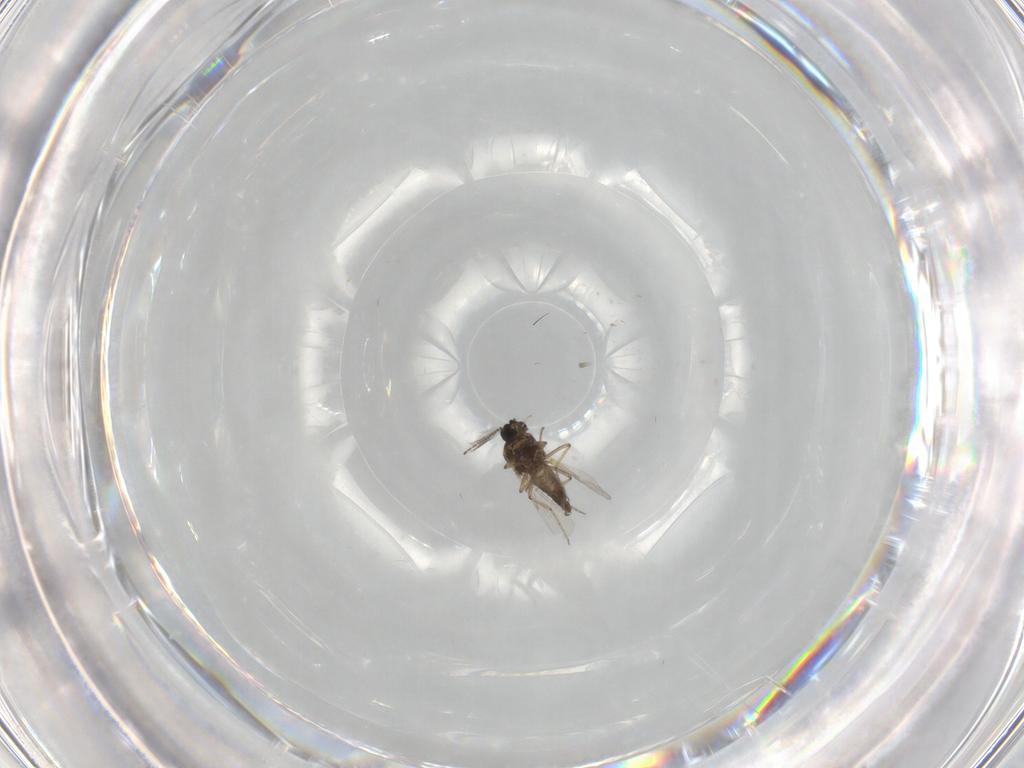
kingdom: Animalia
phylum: Arthropoda
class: Insecta
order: Diptera
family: Ceratopogonidae
